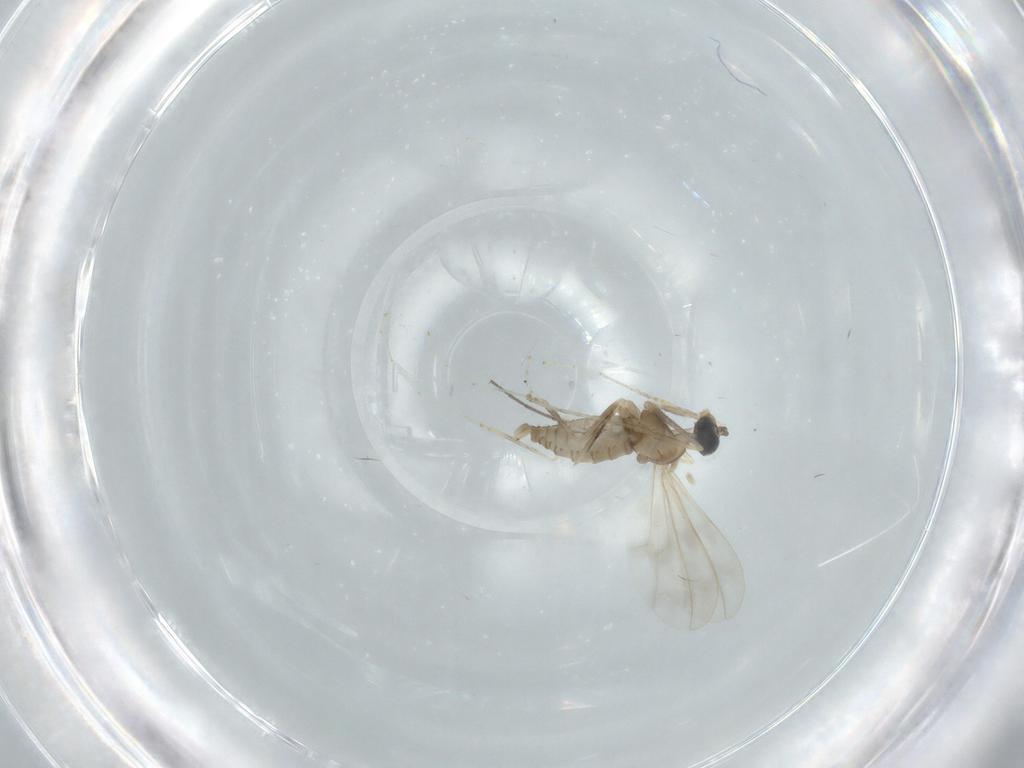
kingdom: Animalia
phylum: Arthropoda
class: Insecta
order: Diptera
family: Cecidomyiidae
